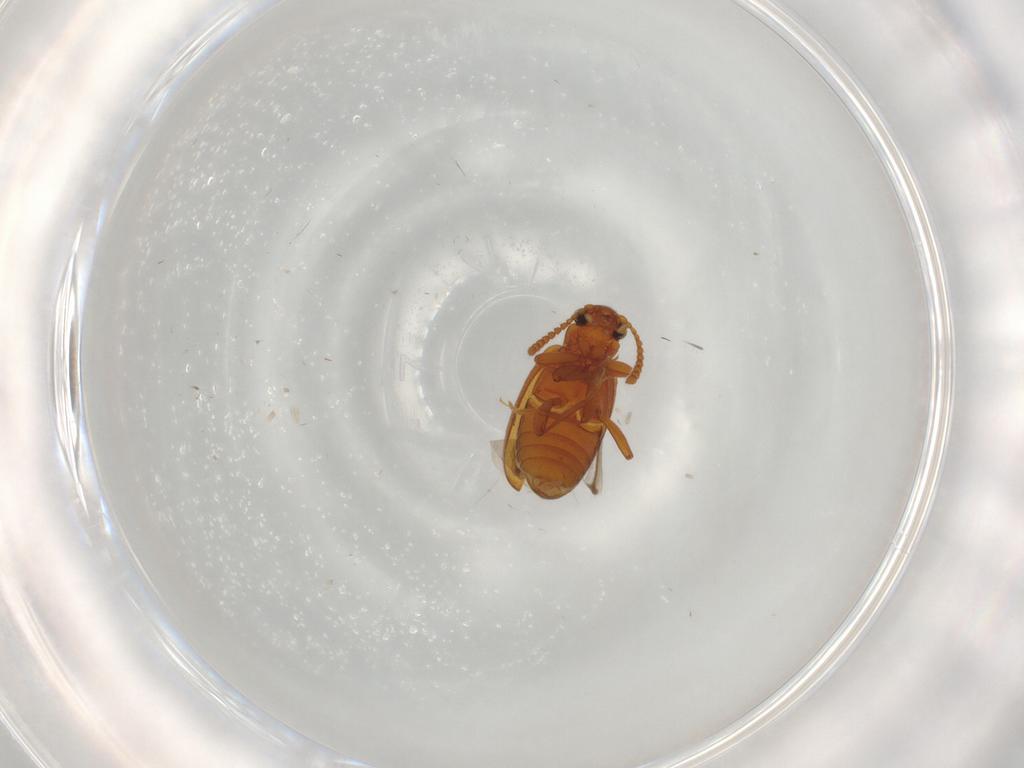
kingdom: Animalia
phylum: Arthropoda
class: Insecta
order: Coleoptera
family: Aderidae
